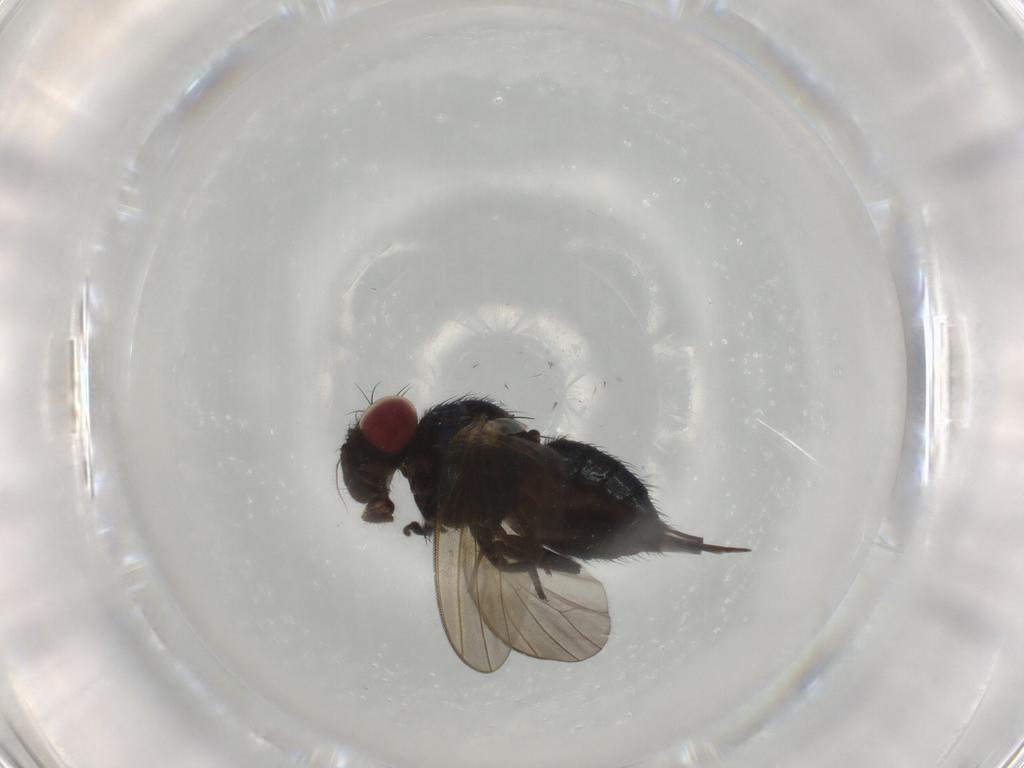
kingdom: Animalia
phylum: Arthropoda
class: Insecta
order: Diptera
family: Lonchaeidae
